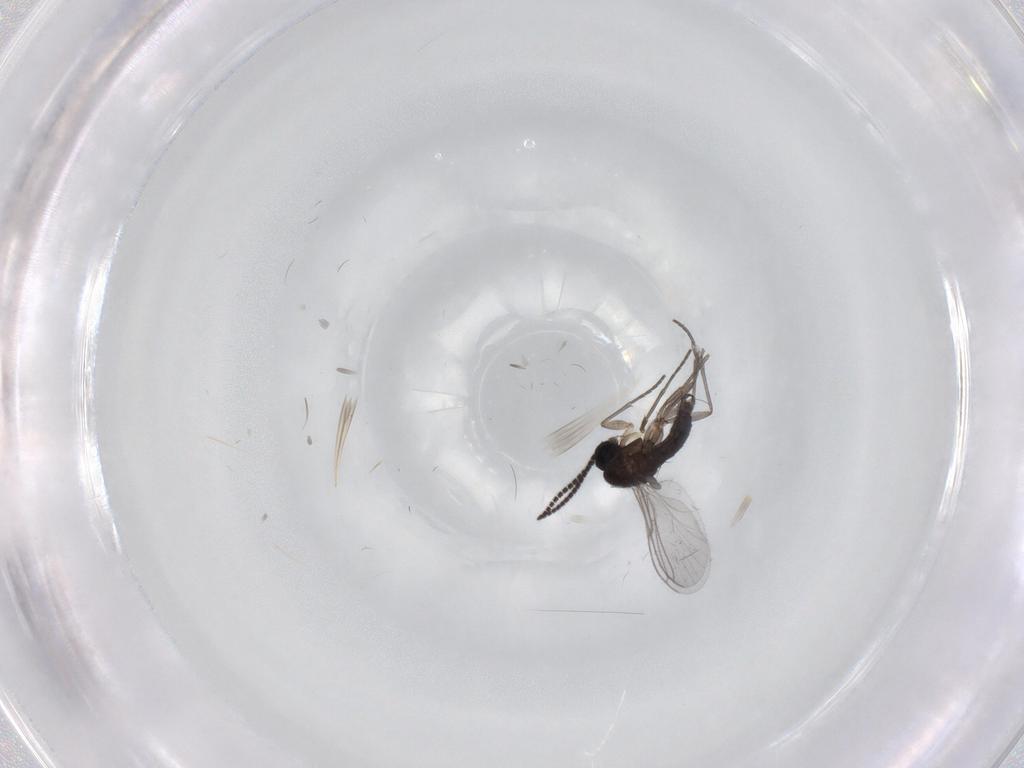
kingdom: Animalia
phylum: Arthropoda
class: Insecta
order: Diptera
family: Sciaridae
